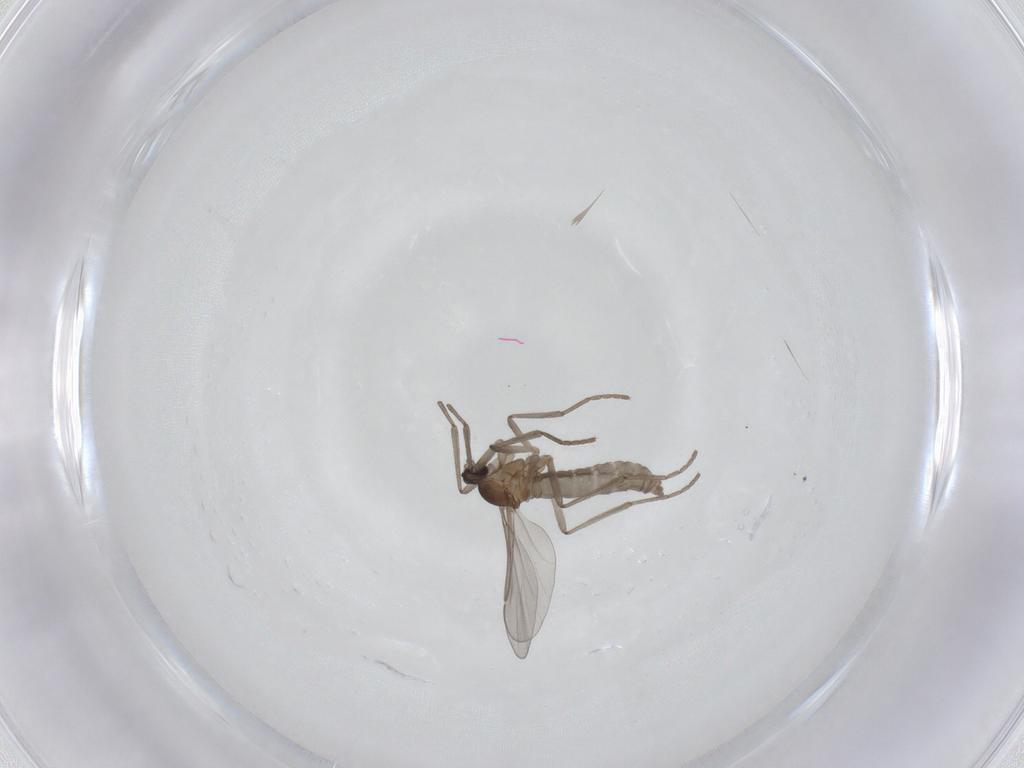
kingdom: Animalia
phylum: Arthropoda
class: Insecta
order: Diptera
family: Cecidomyiidae
